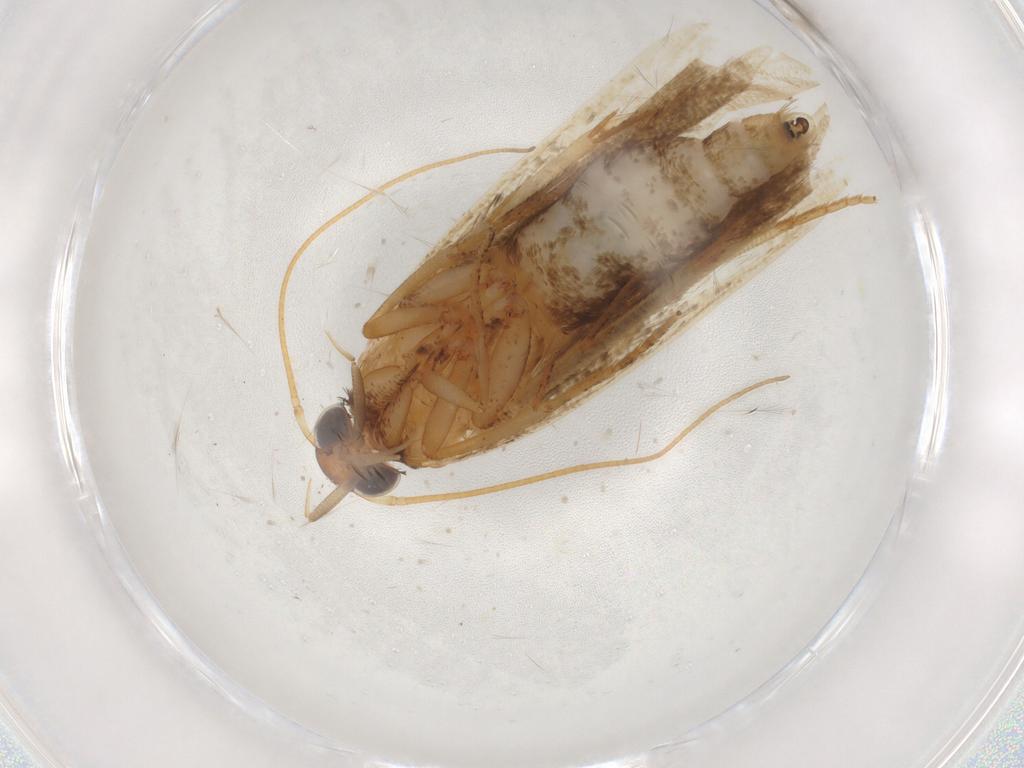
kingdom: Animalia
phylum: Arthropoda
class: Insecta
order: Lepidoptera
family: Gelechiidae
